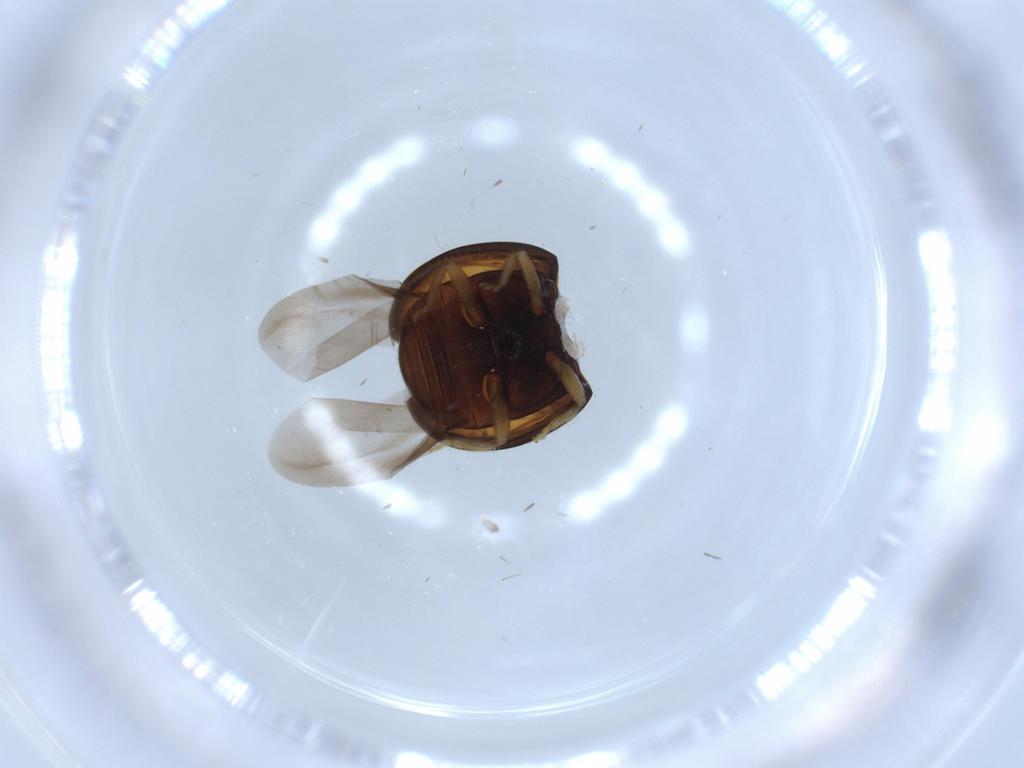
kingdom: Animalia
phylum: Arthropoda
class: Insecta
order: Coleoptera
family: Coccinellidae
